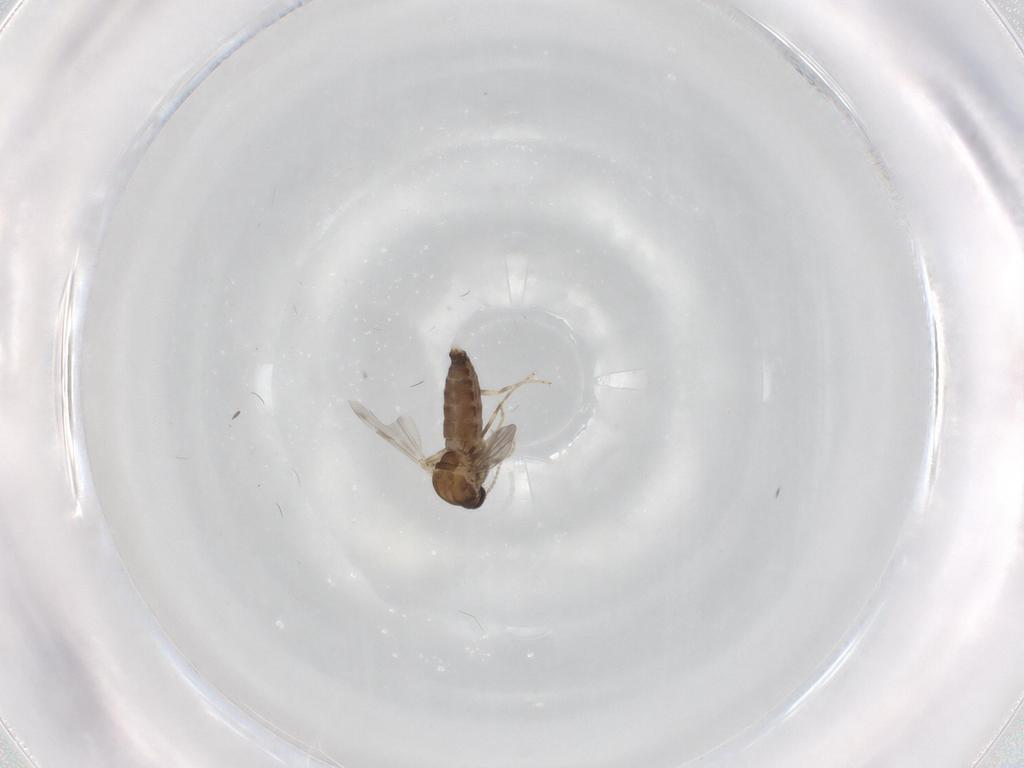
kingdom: Animalia
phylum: Arthropoda
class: Insecta
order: Diptera
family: Ceratopogonidae
